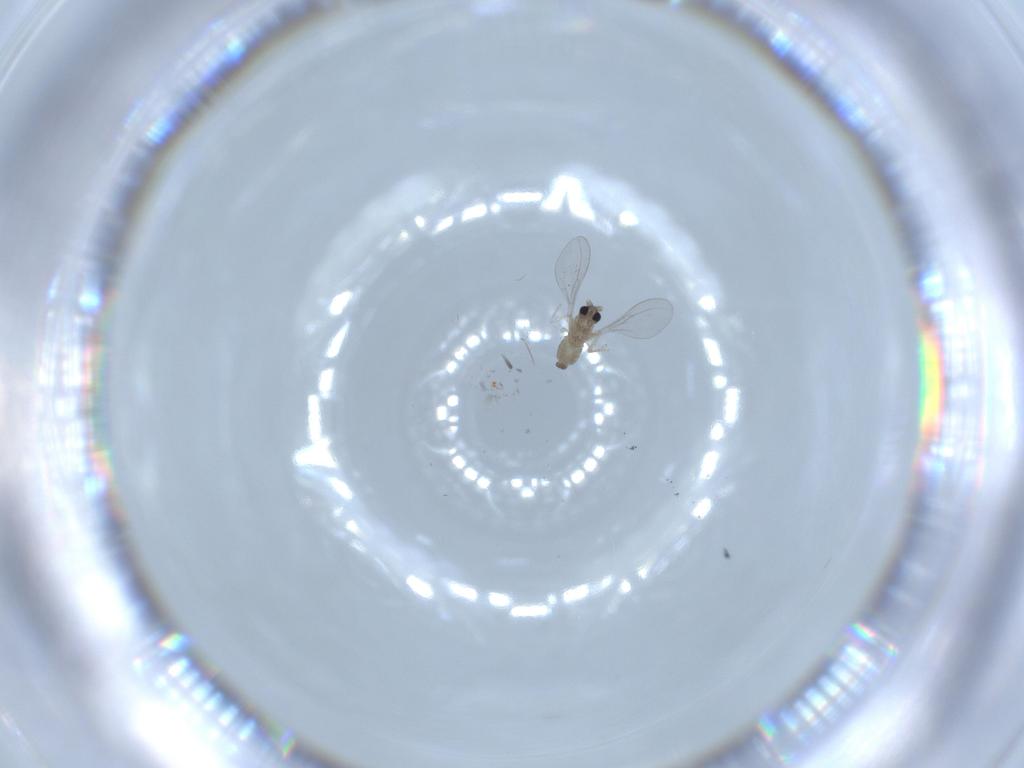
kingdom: Animalia
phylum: Arthropoda
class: Insecta
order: Diptera
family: Cecidomyiidae
